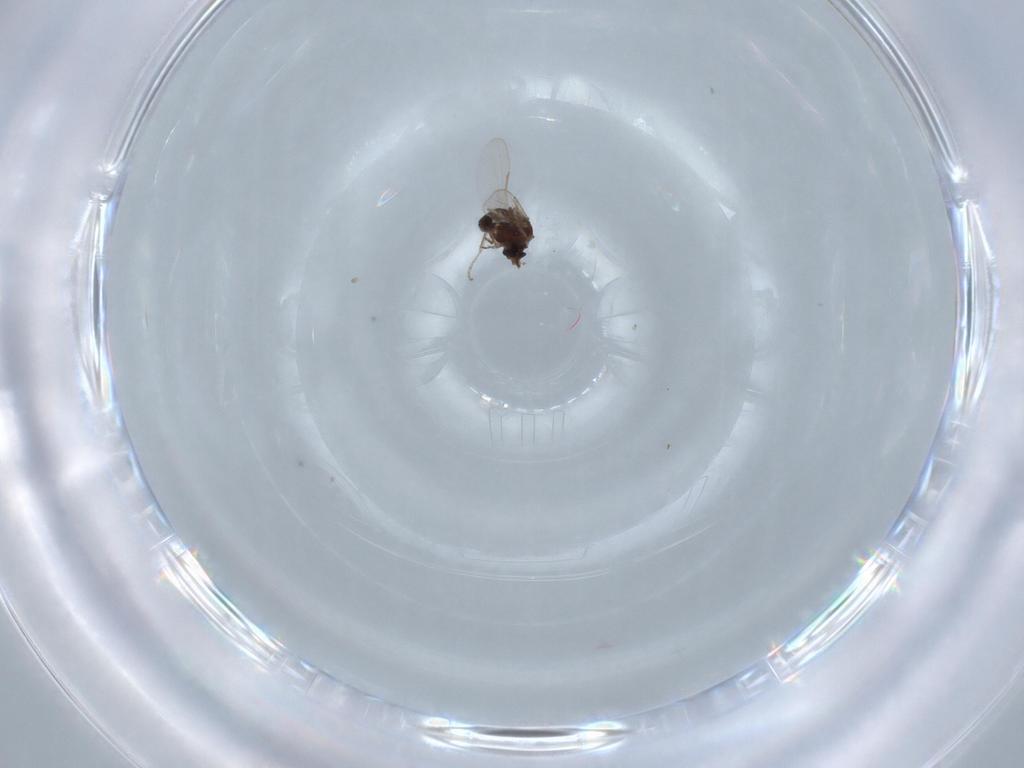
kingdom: Animalia
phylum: Arthropoda
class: Insecta
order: Diptera
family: Ceratopogonidae
